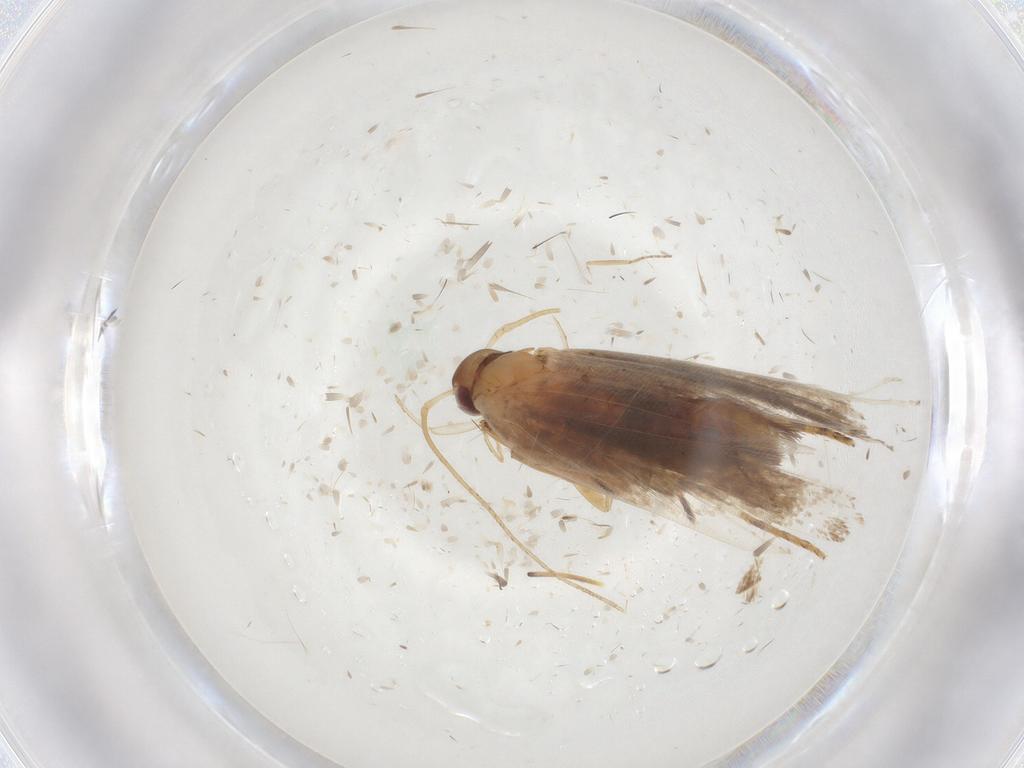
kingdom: Animalia
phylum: Arthropoda
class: Insecta
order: Lepidoptera
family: Gelechiidae
